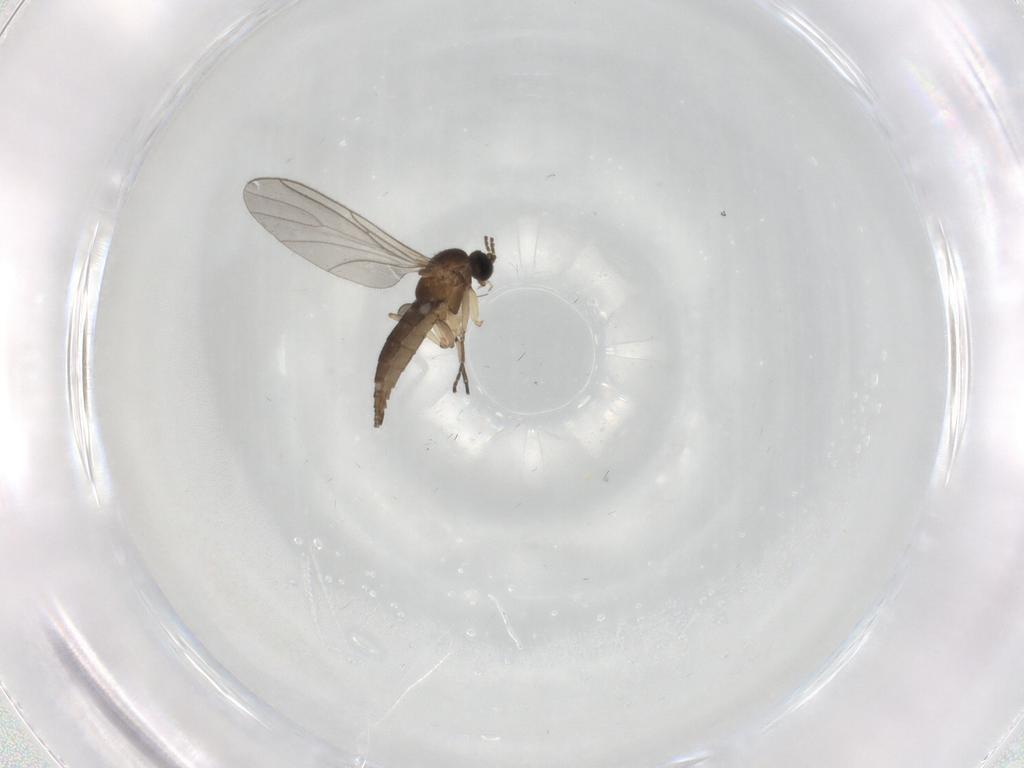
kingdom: Animalia
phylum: Arthropoda
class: Insecta
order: Diptera
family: Sciaridae
